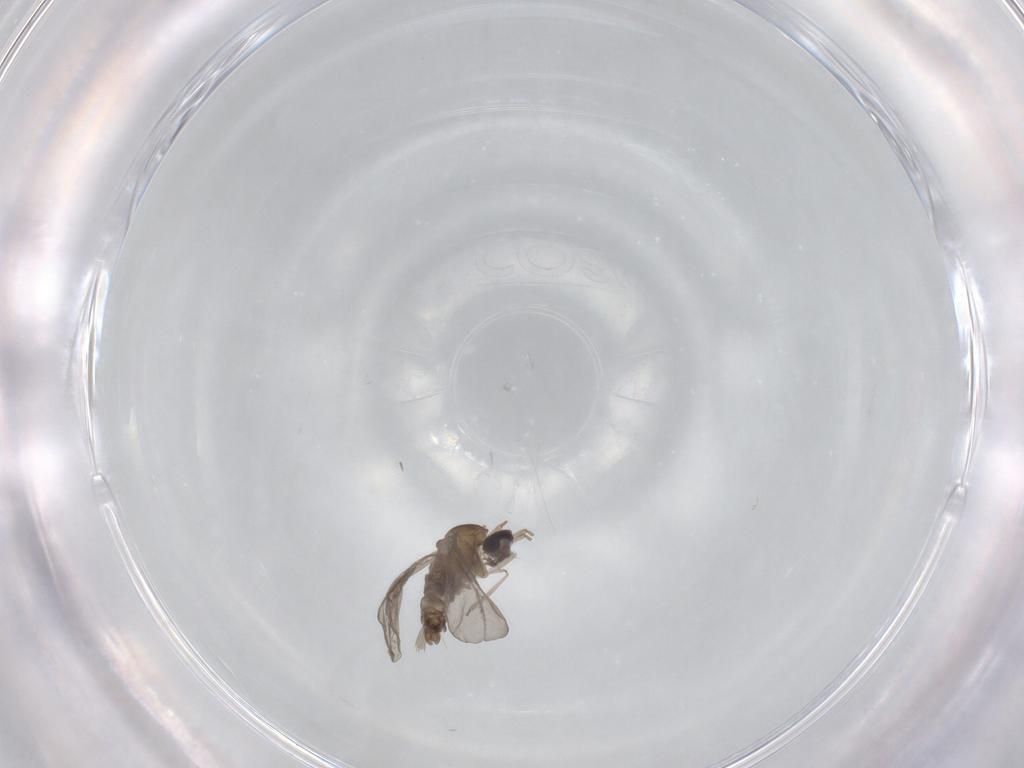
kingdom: Animalia
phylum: Arthropoda
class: Insecta
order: Diptera
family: Cecidomyiidae
